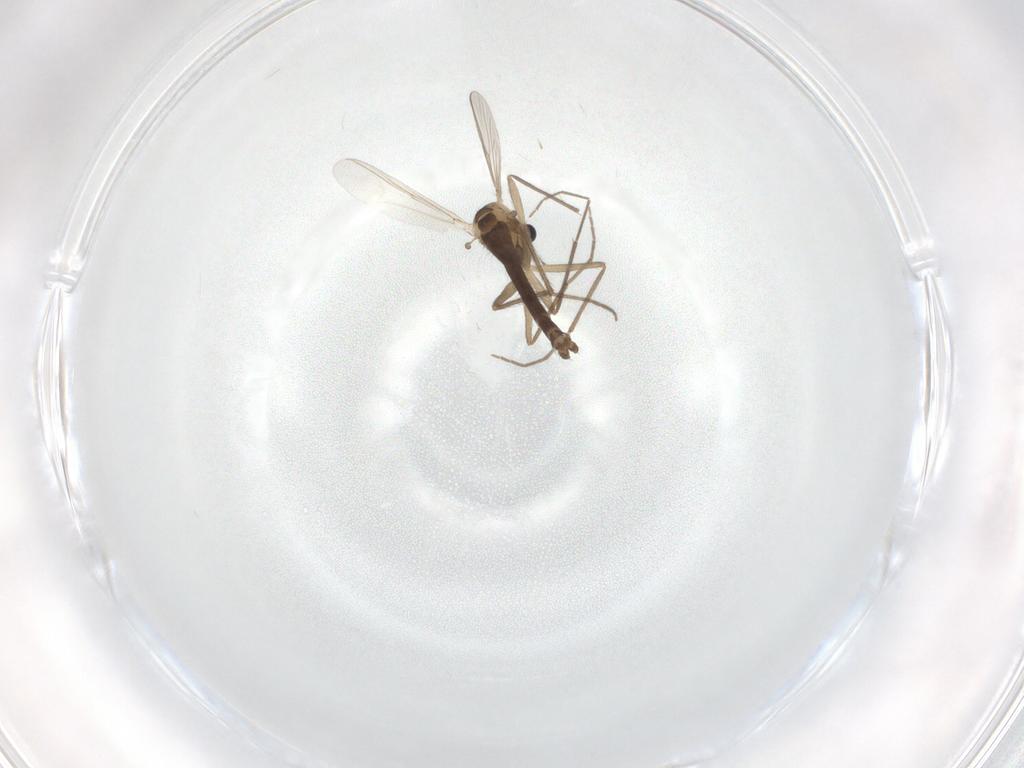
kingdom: Animalia
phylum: Arthropoda
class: Insecta
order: Diptera
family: Chironomidae
